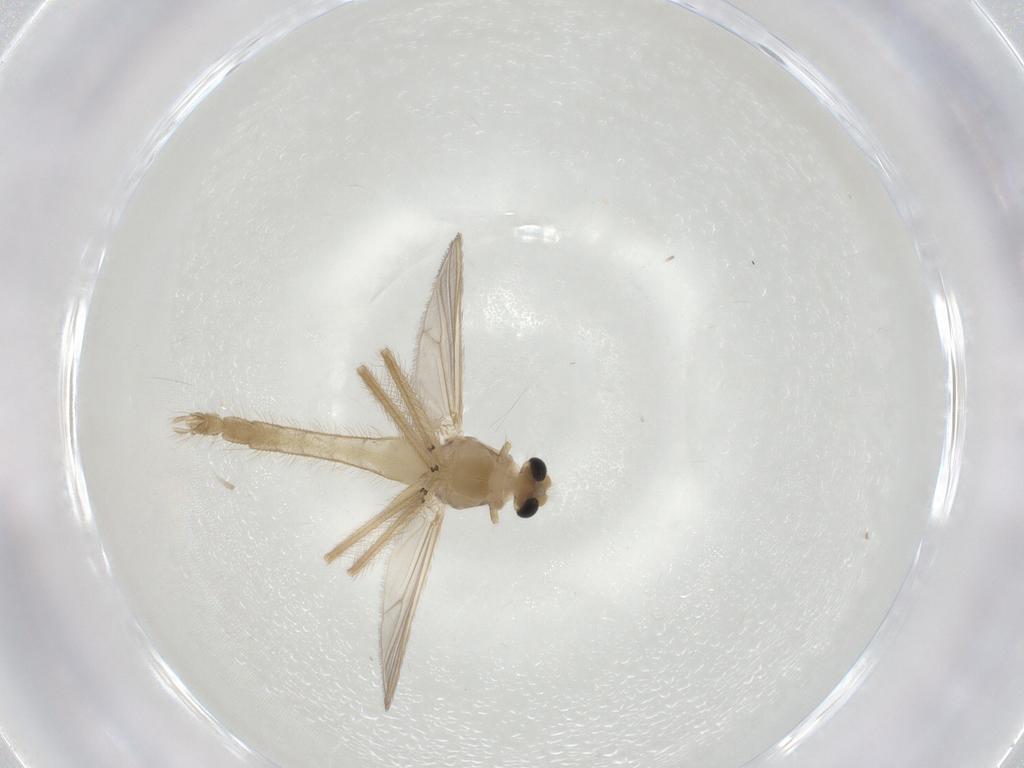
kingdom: Animalia
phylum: Arthropoda
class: Insecta
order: Diptera
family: Chironomidae
